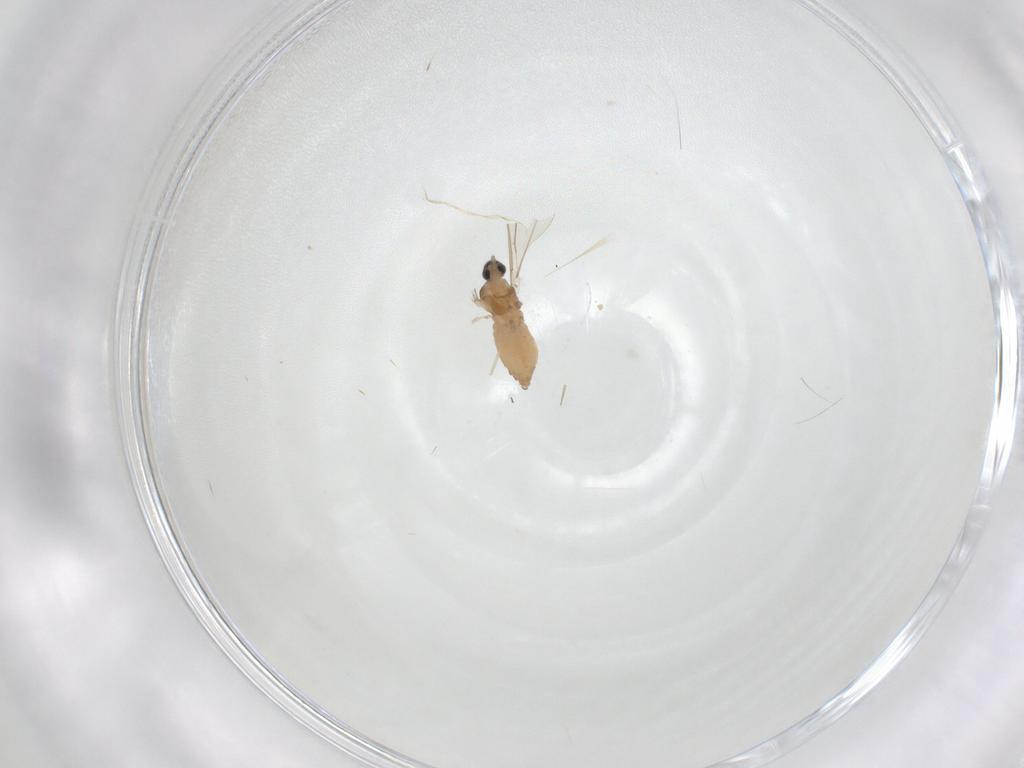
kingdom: Animalia
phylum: Arthropoda
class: Insecta
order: Diptera
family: Cecidomyiidae
